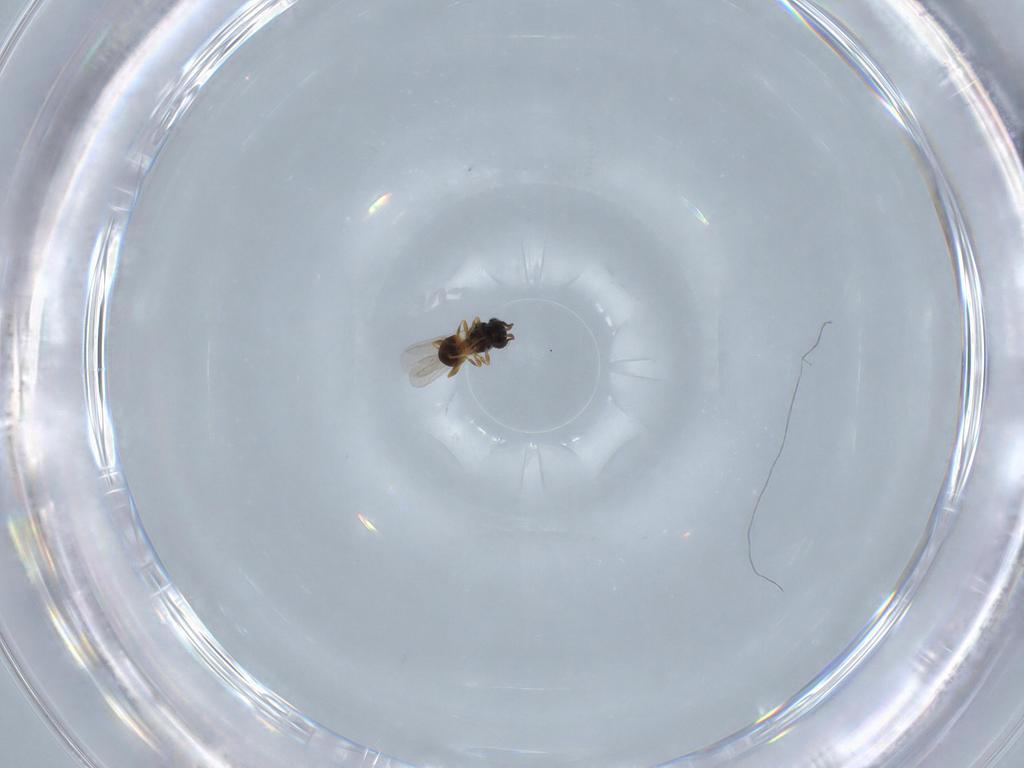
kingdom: Animalia
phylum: Arthropoda
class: Insecta
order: Hymenoptera
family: Platygastridae
